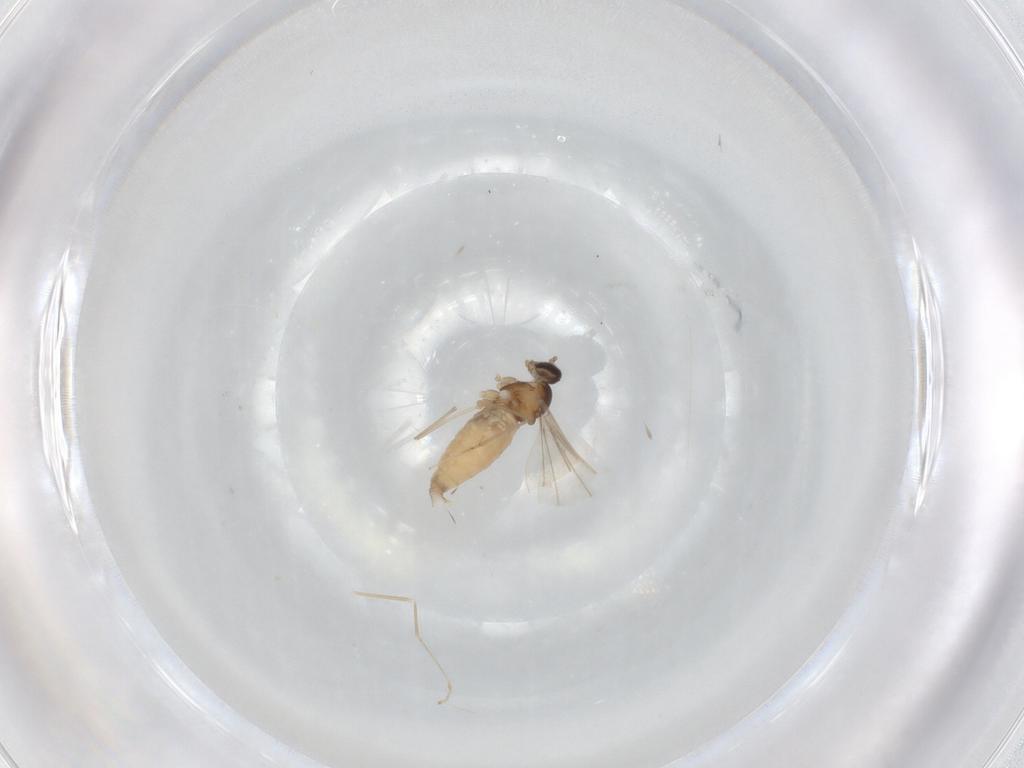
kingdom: Animalia
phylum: Arthropoda
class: Insecta
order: Diptera
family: Cecidomyiidae
